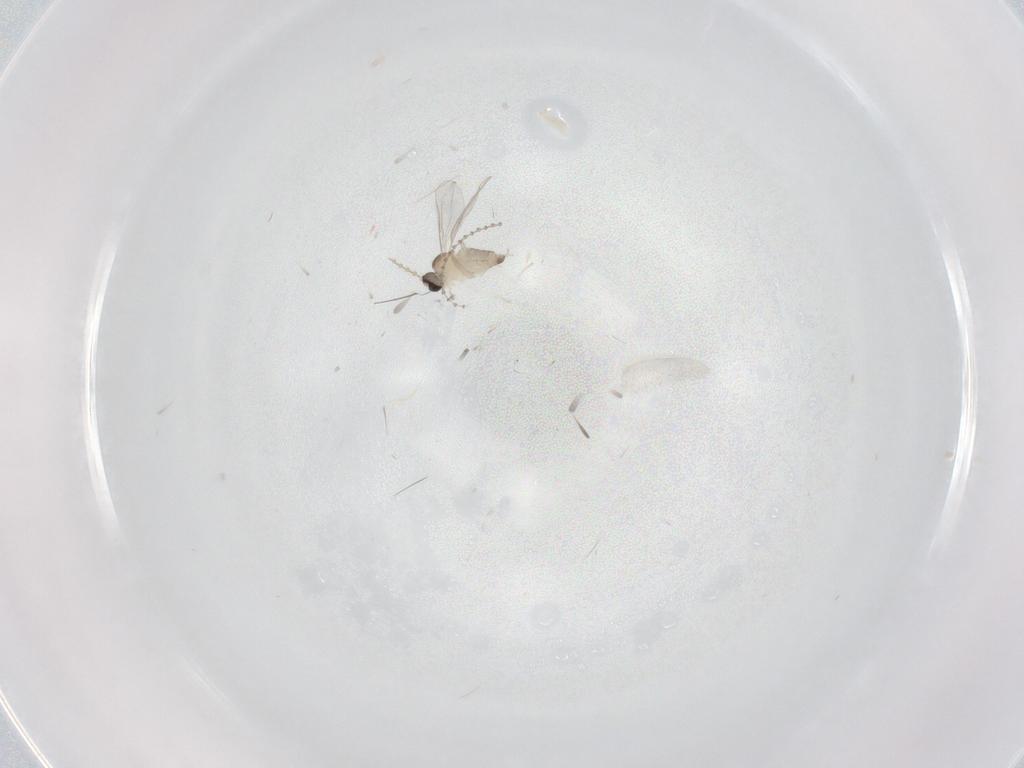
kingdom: Animalia
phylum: Arthropoda
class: Insecta
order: Diptera
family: Cecidomyiidae
